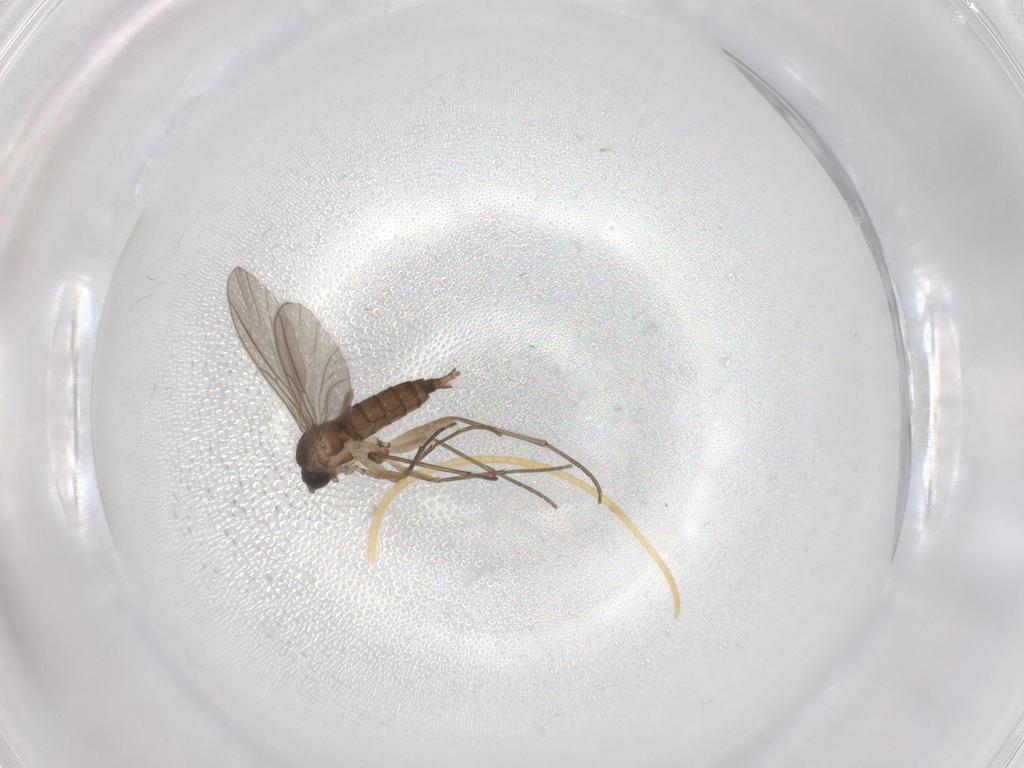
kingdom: Animalia
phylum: Arthropoda
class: Insecta
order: Diptera
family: Sciaridae
